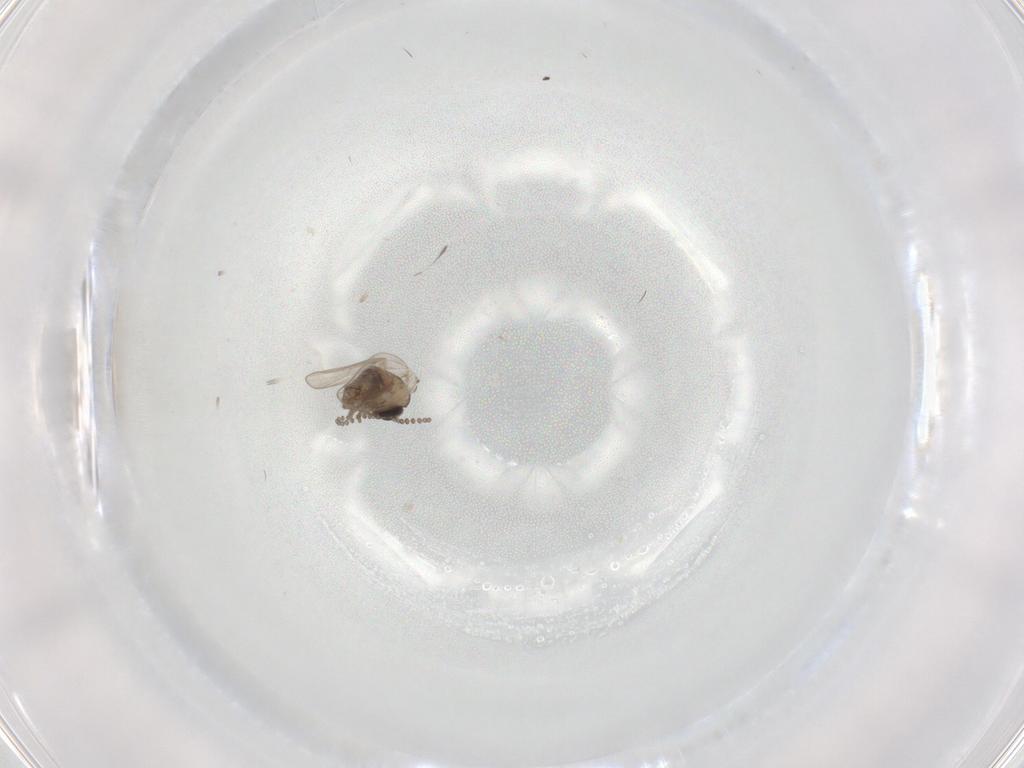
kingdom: Animalia
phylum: Arthropoda
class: Insecta
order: Diptera
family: Psychodidae
